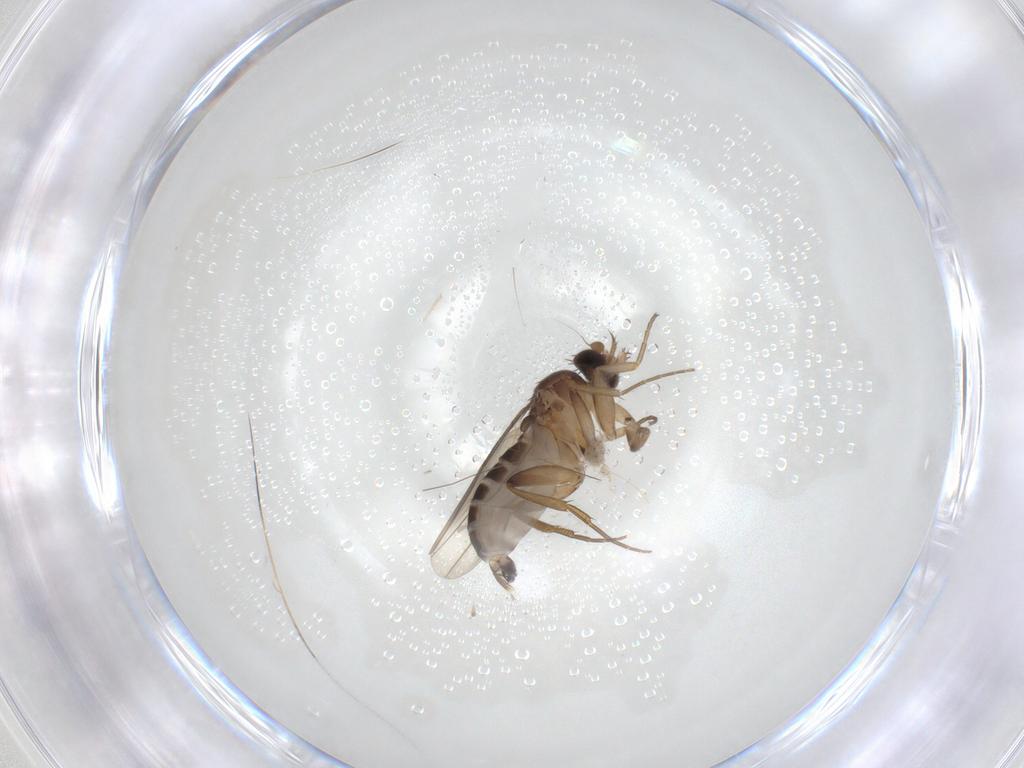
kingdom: Animalia
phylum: Arthropoda
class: Insecta
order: Diptera
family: Phoridae
